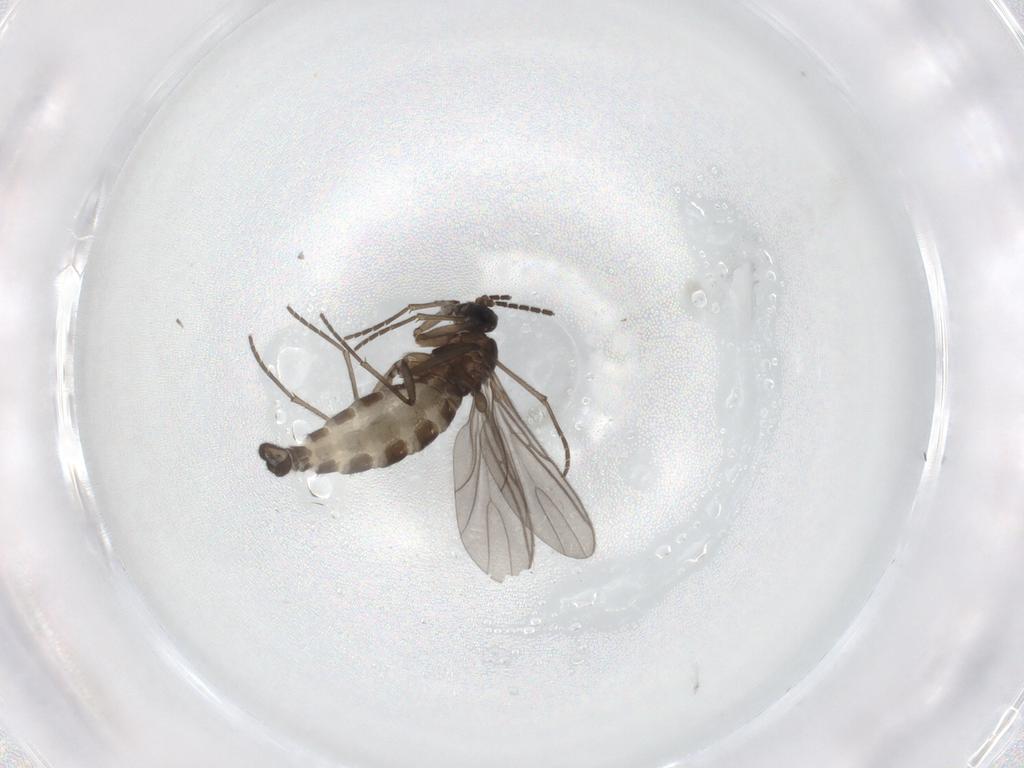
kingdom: Animalia
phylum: Arthropoda
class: Insecta
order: Diptera
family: Sciaridae
